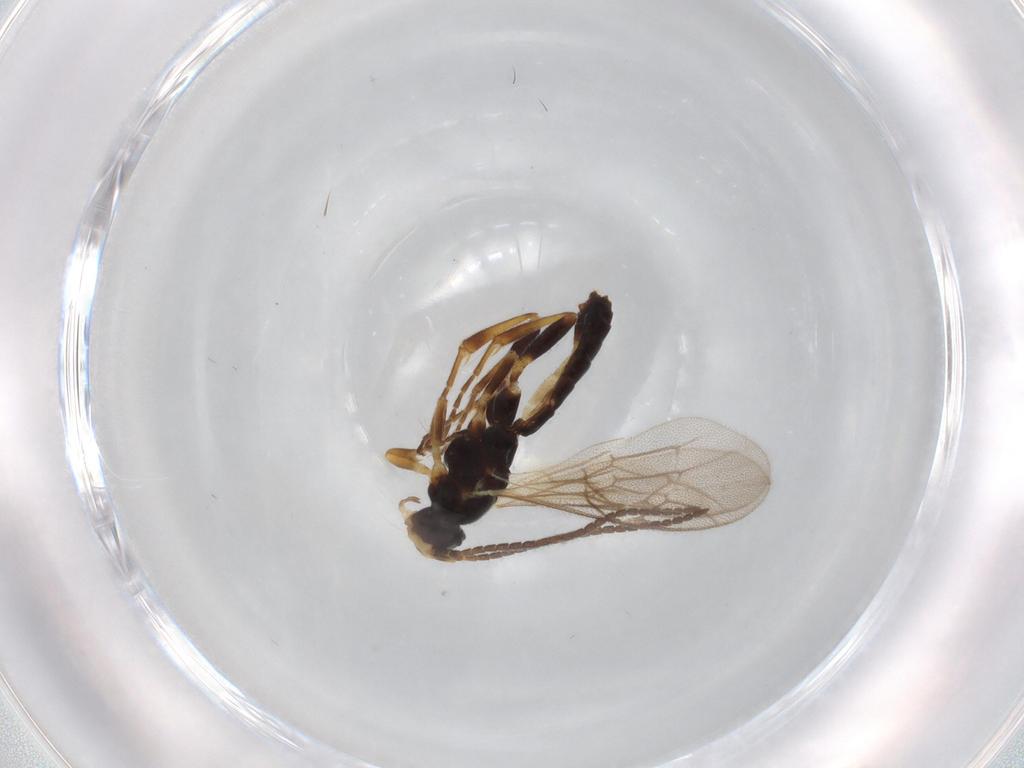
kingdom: Animalia
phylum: Arthropoda
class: Insecta
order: Hymenoptera
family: Ichneumonidae
